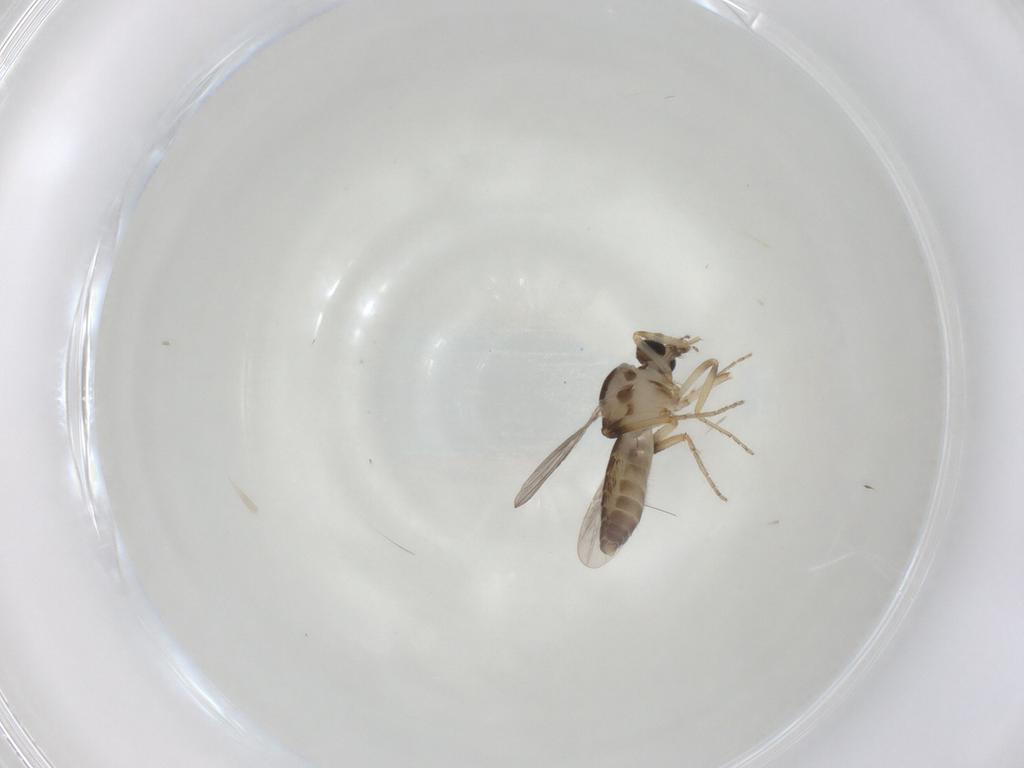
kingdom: Animalia
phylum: Arthropoda
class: Insecta
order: Diptera
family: Ceratopogonidae
